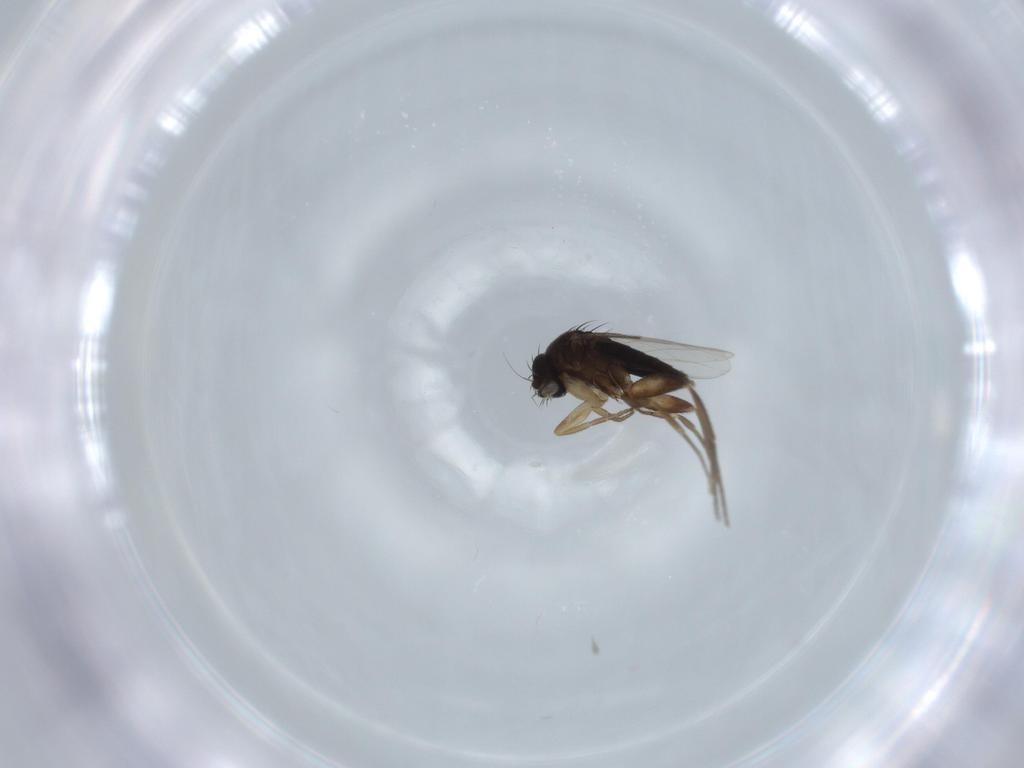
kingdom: Animalia
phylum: Arthropoda
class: Insecta
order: Diptera
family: Phoridae
